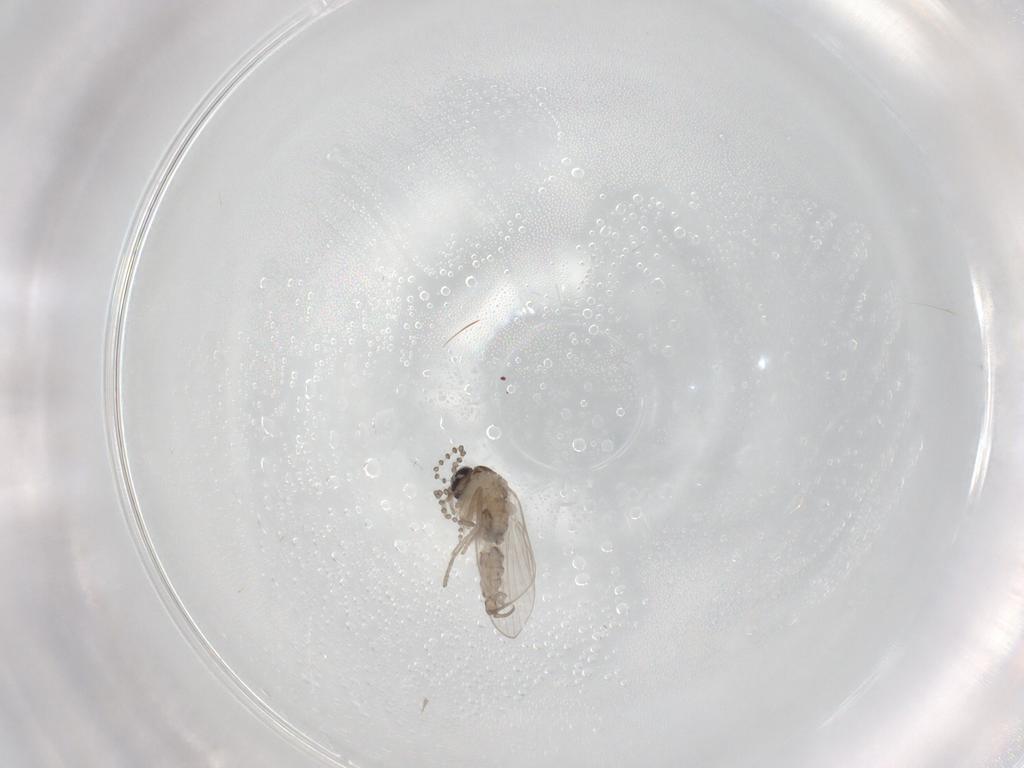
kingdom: Animalia
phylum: Arthropoda
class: Insecta
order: Diptera
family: Psychodidae
